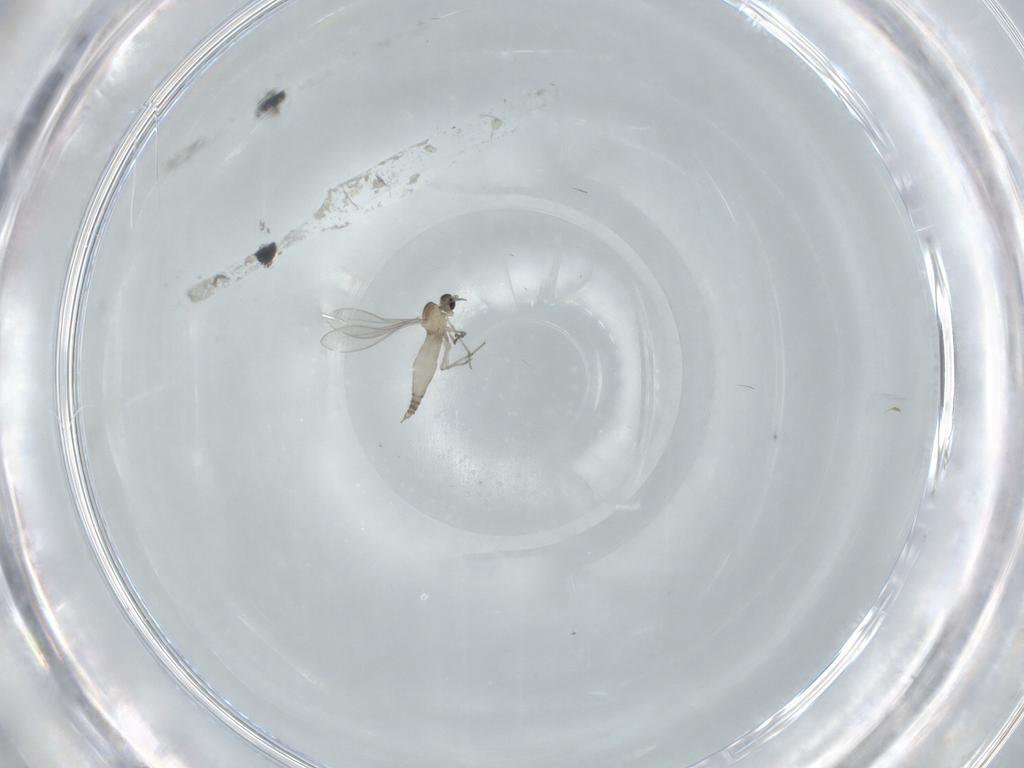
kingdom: Animalia
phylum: Arthropoda
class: Insecta
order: Diptera
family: Cecidomyiidae
